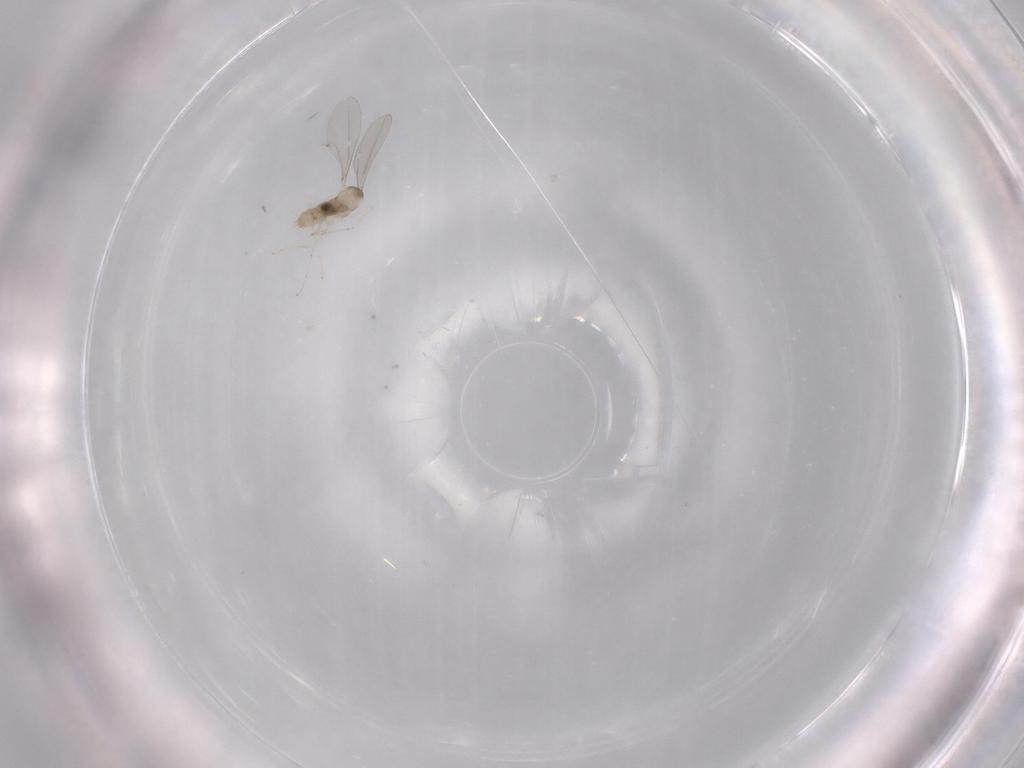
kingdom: Animalia
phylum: Arthropoda
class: Insecta
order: Diptera
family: Cecidomyiidae
